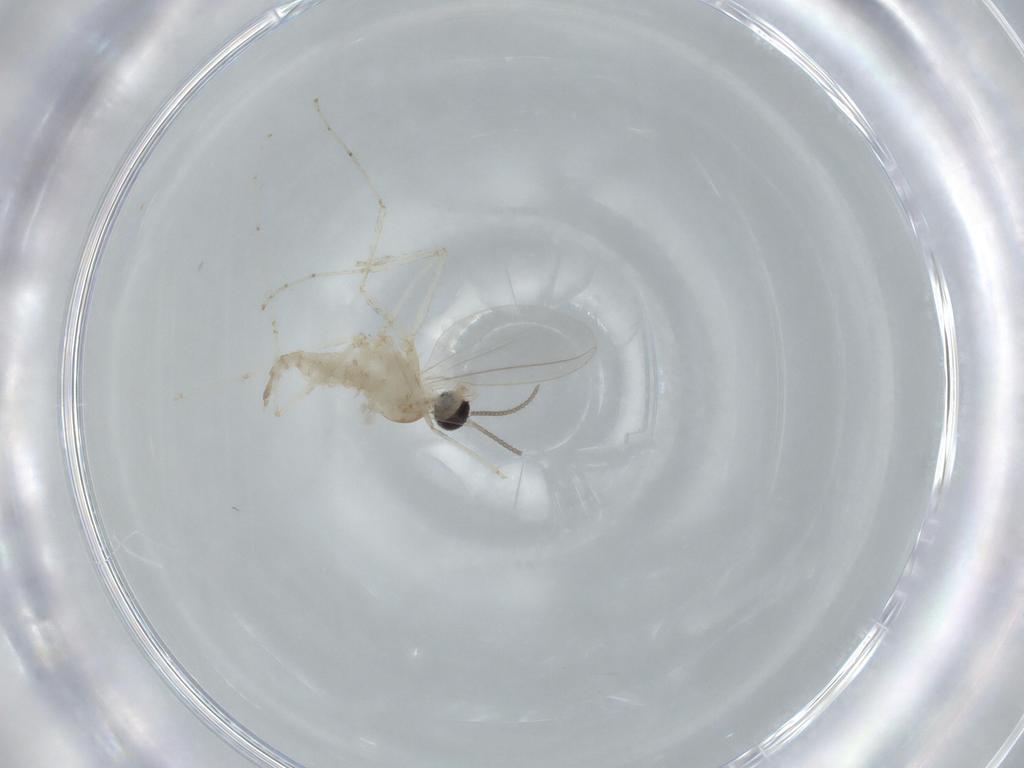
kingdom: Animalia
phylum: Arthropoda
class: Insecta
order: Diptera
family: Cecidomyiidae
